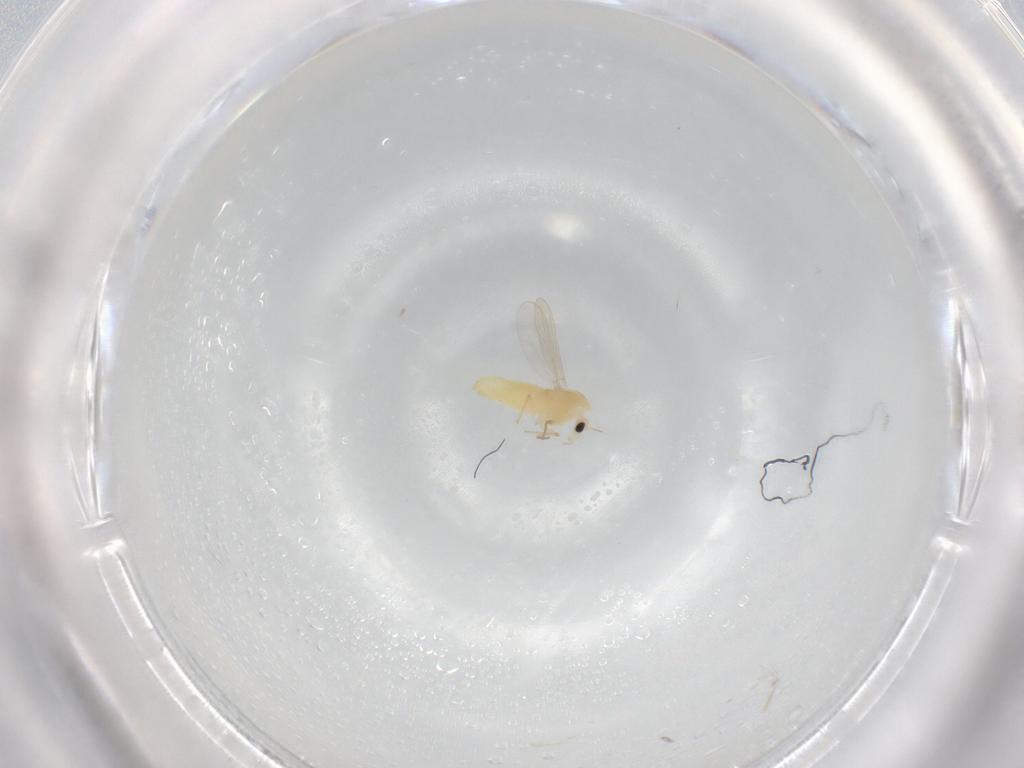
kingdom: Animalia
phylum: Arthropoda
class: Insecta
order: Diptera
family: Chironomidae
